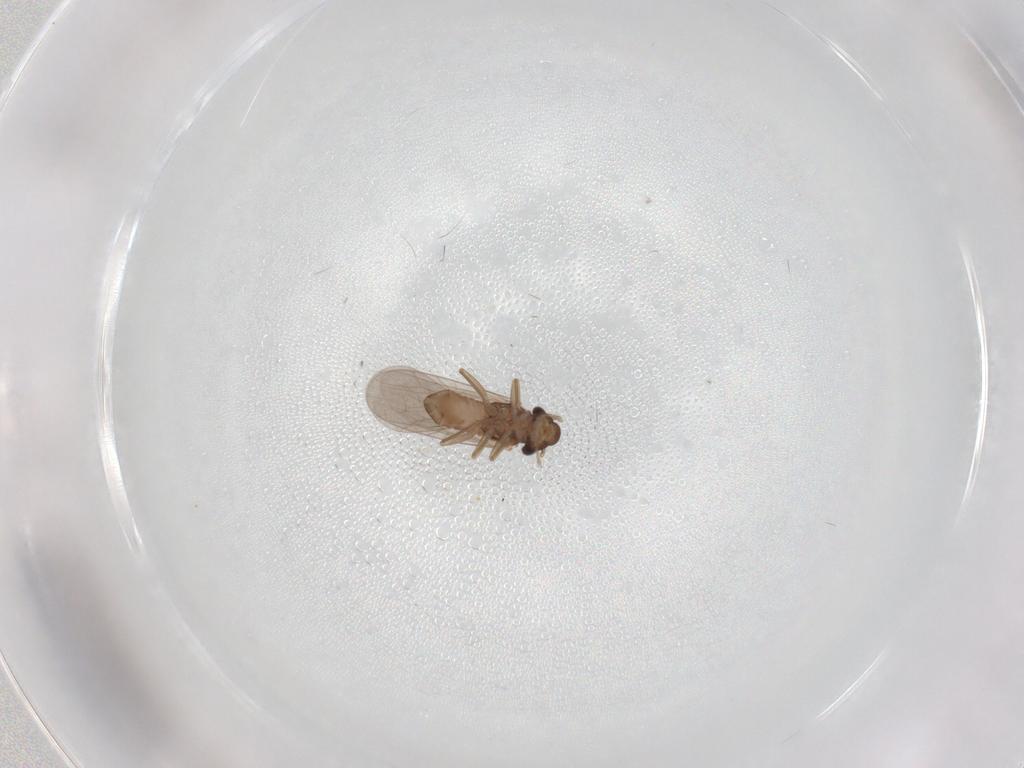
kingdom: Animalia
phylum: Arthropoda
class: Insecta
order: Psocodea
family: Lepidopsocidae
